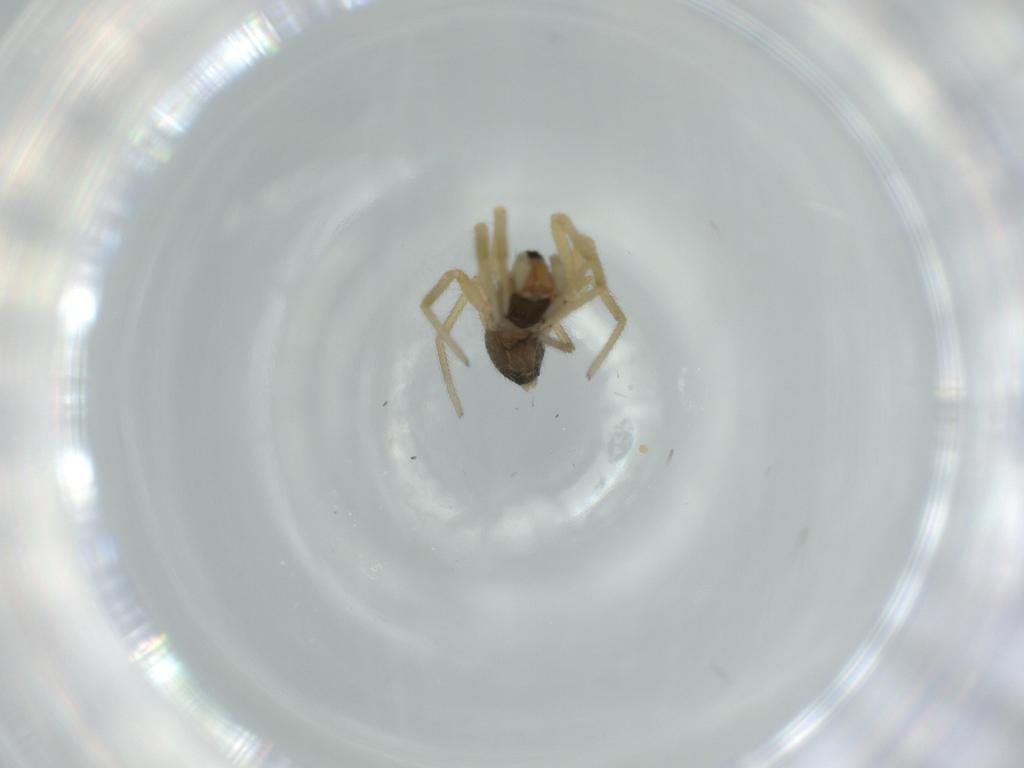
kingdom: Animalia
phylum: Arthropoda
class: Arachnida
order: Araneae
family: Linyphiidae
